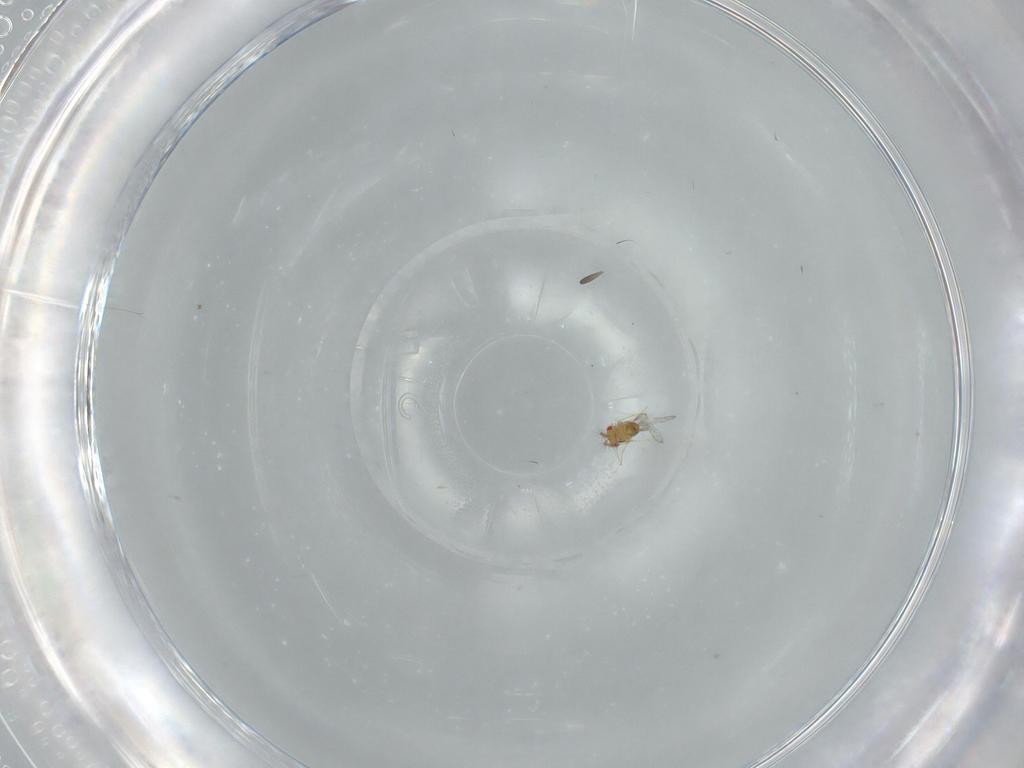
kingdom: Animalia
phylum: Arthropoda
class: Insecta
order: Hymenoptera
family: Trichogrammatidae
